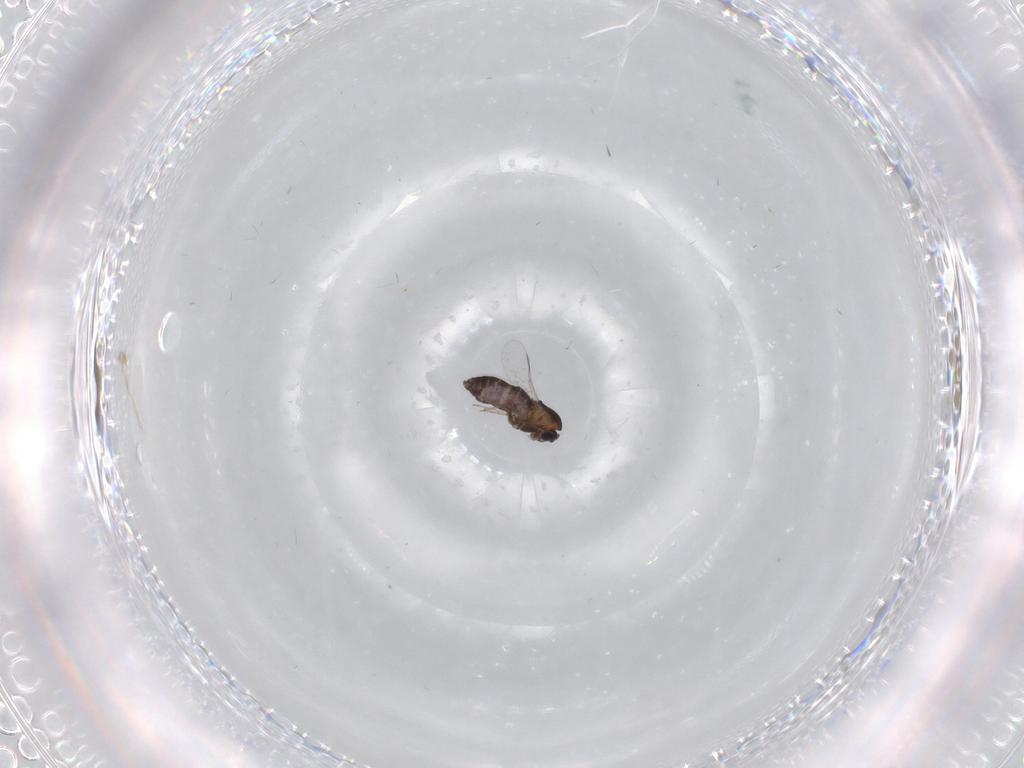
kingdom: Animalia
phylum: Arthropoda
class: Insecta
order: Diptera
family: Chironomidae
